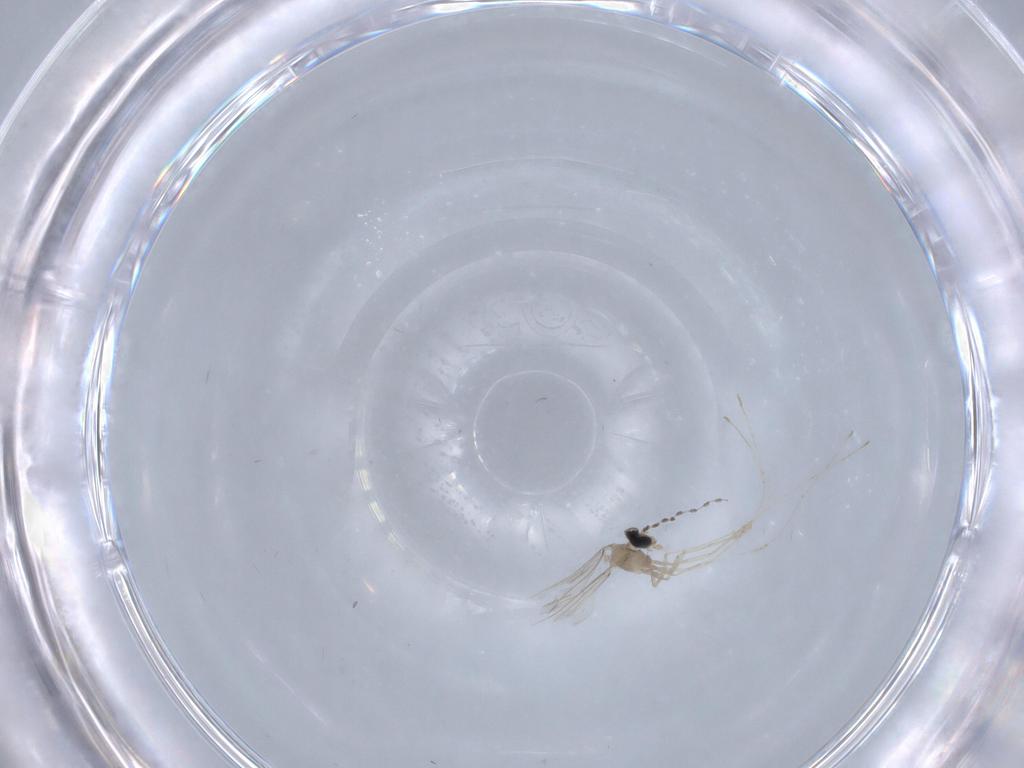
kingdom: Animalia
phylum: Arthropoda
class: Insecta
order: Diptera
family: Cecidomyiidae
